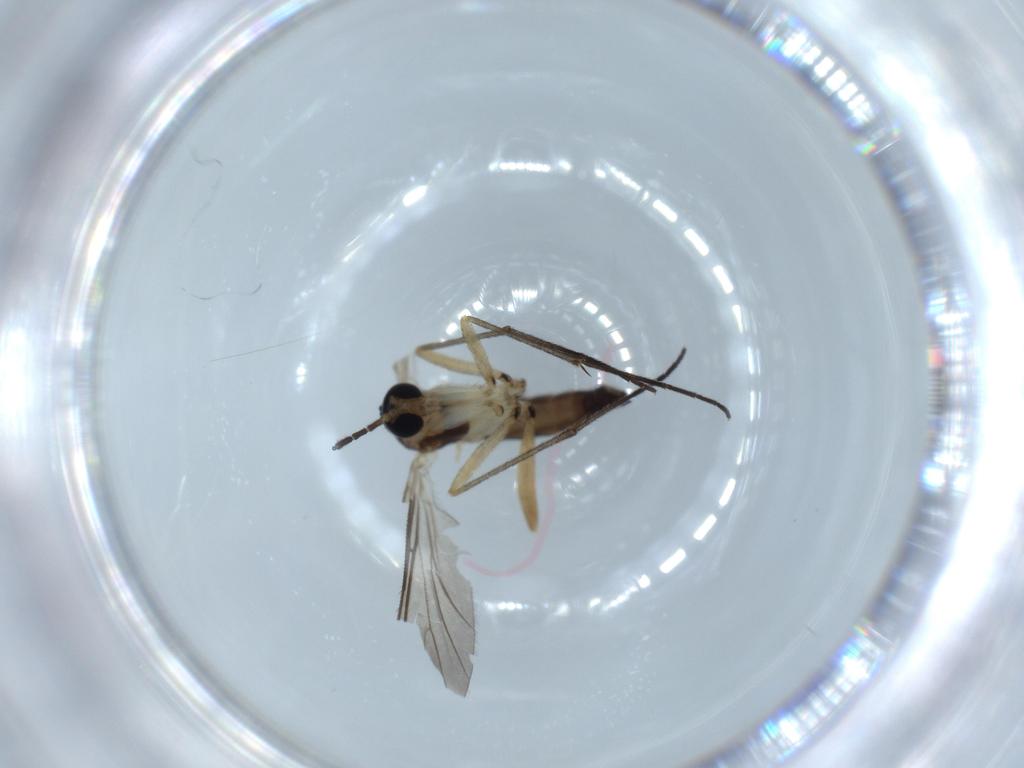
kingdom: Animalia
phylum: Arthropoda
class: Insecta
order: Diptera
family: Sciaridae
